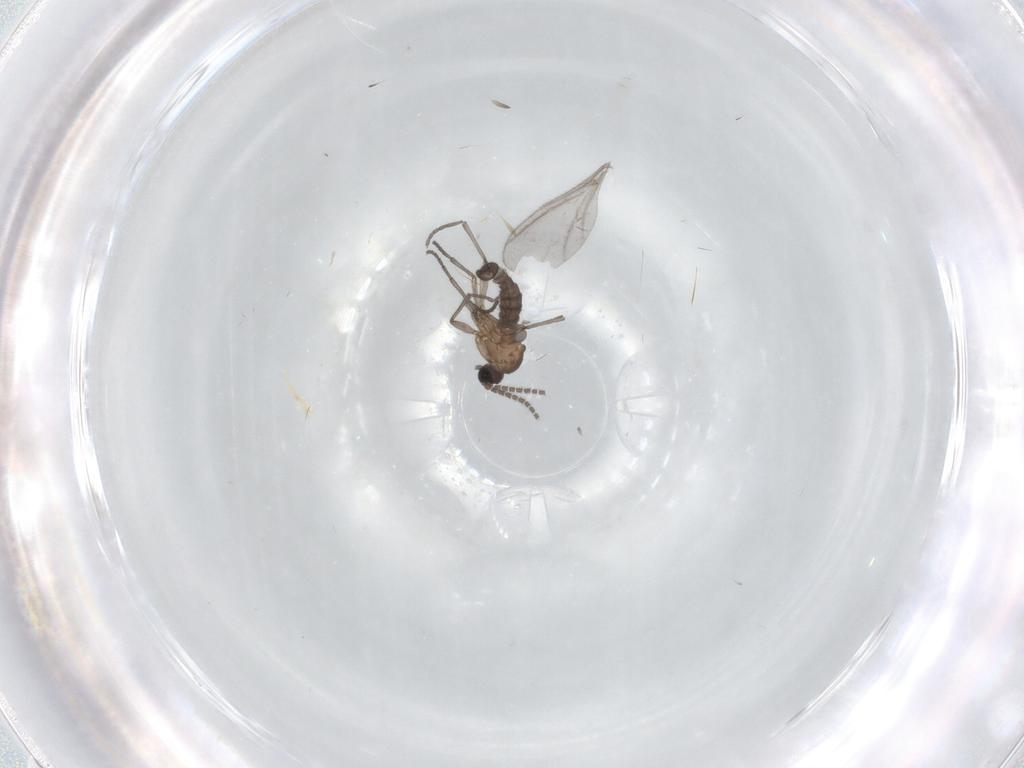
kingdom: Animalia
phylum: Arthropoda
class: Insecta
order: Diptera
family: Sciaridae
